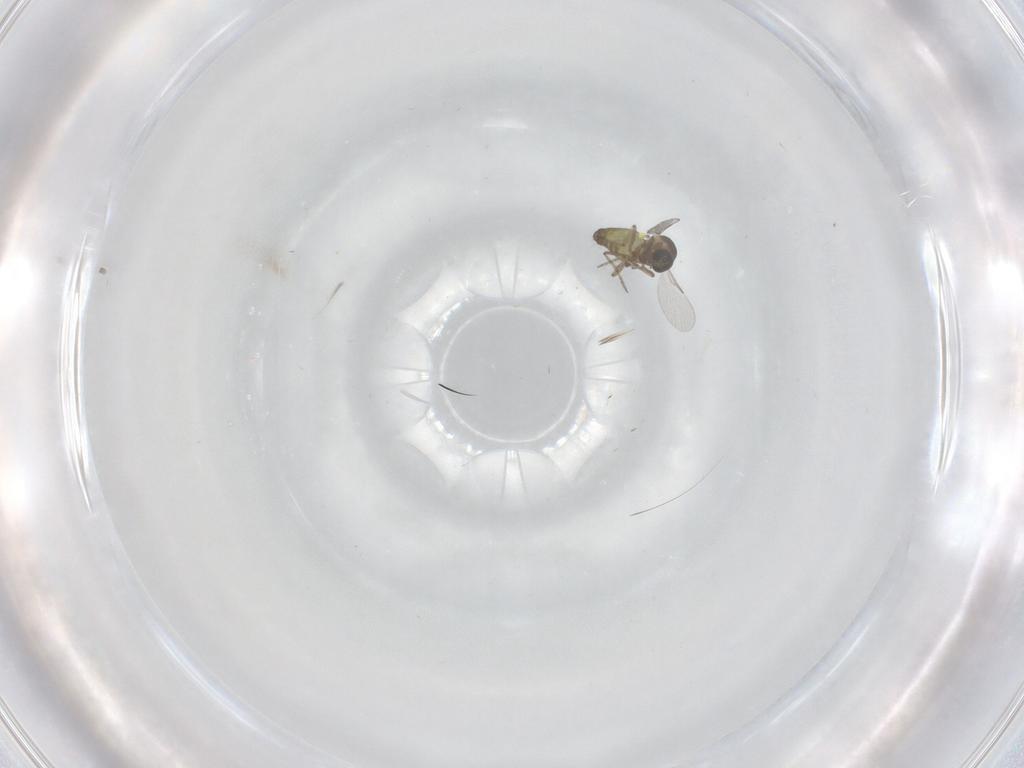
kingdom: Animalia
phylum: Arthropoda
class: Insecta
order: Diptera
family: Ceratopogonidae
